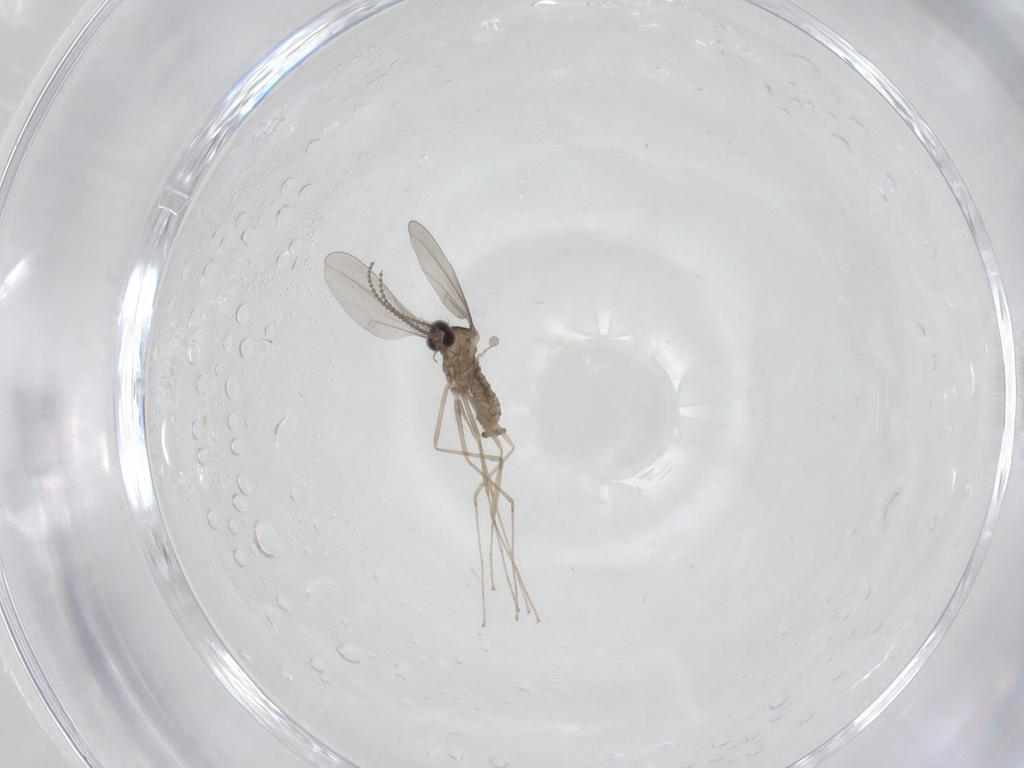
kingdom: Animalia
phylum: Arthropoda
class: Insecta
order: Diptera
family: Cecidomyiidae
